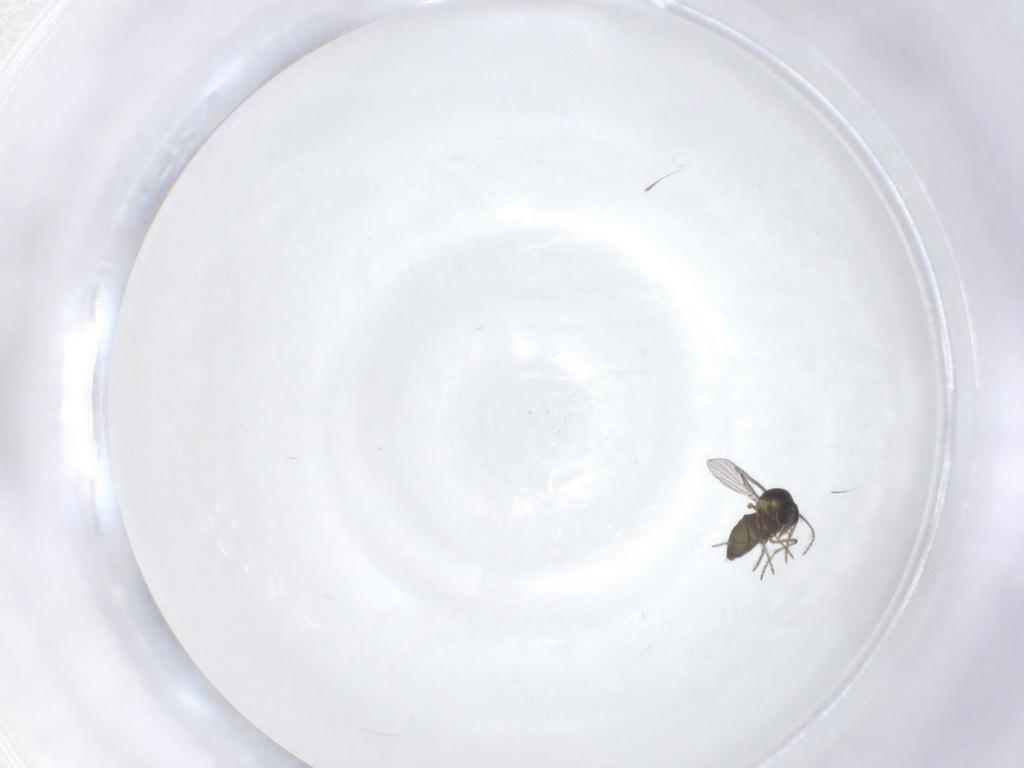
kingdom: Animalia
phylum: Arthropoda
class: Insecta
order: Diptera
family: Ceratopogonidae
